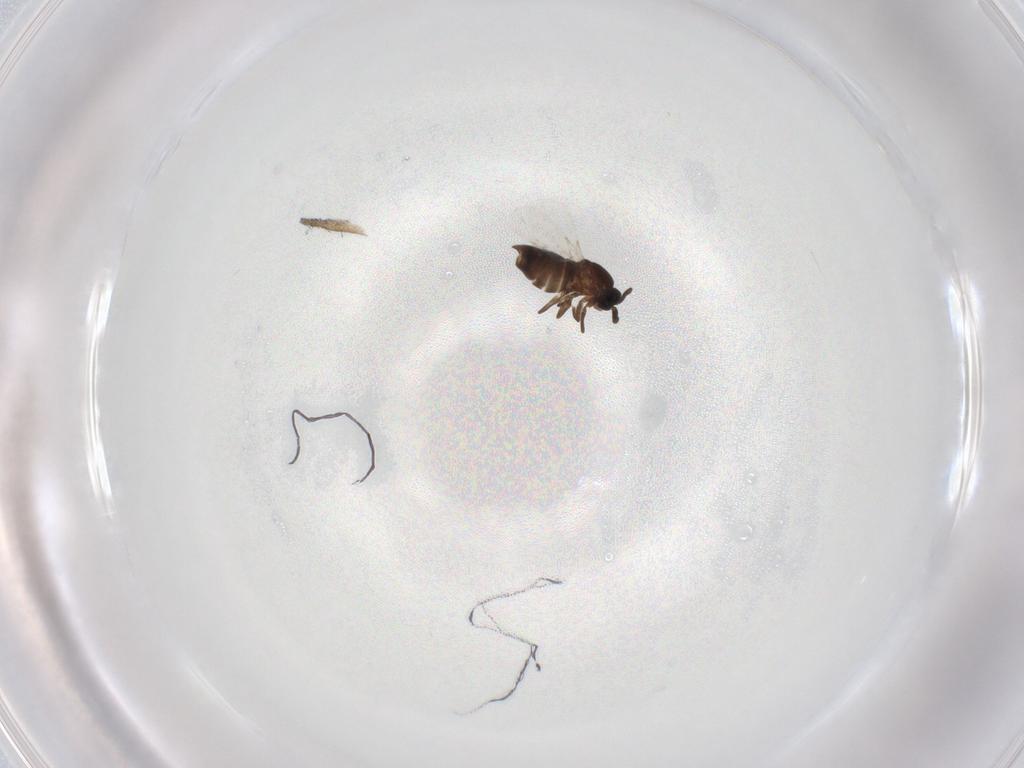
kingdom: Animalia
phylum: Arthropoda
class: Insecta
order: Diptera
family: Scatopsidae
